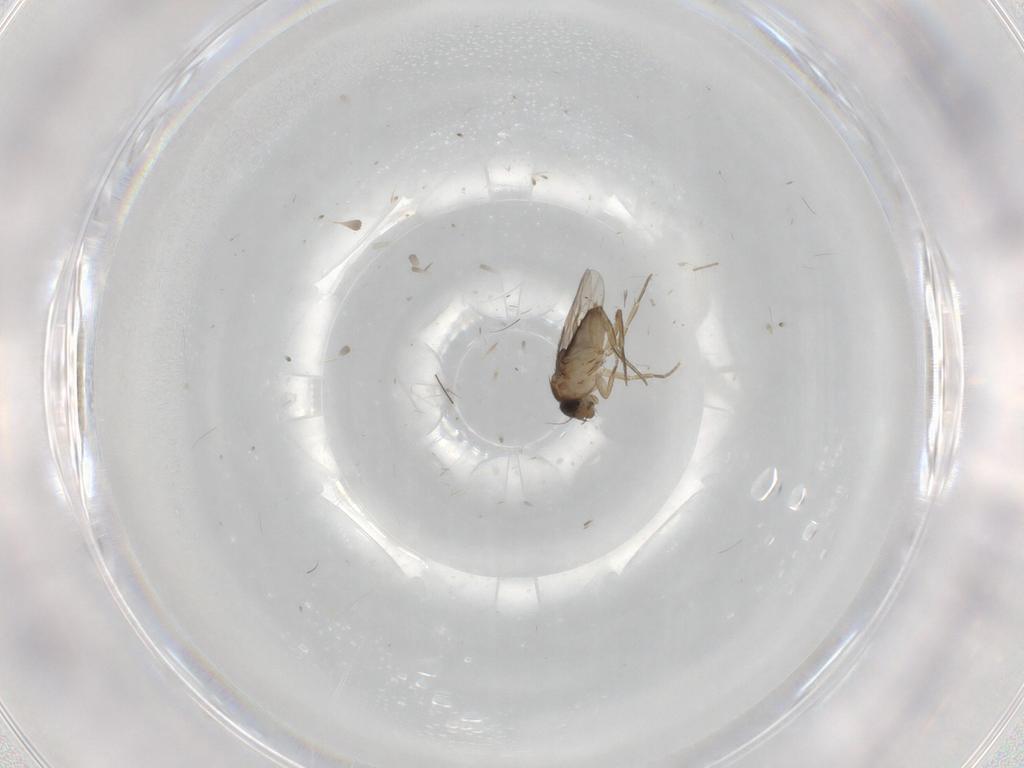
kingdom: Animalia
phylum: Arthropoda
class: Insecta
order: Diptera
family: Phoridae
